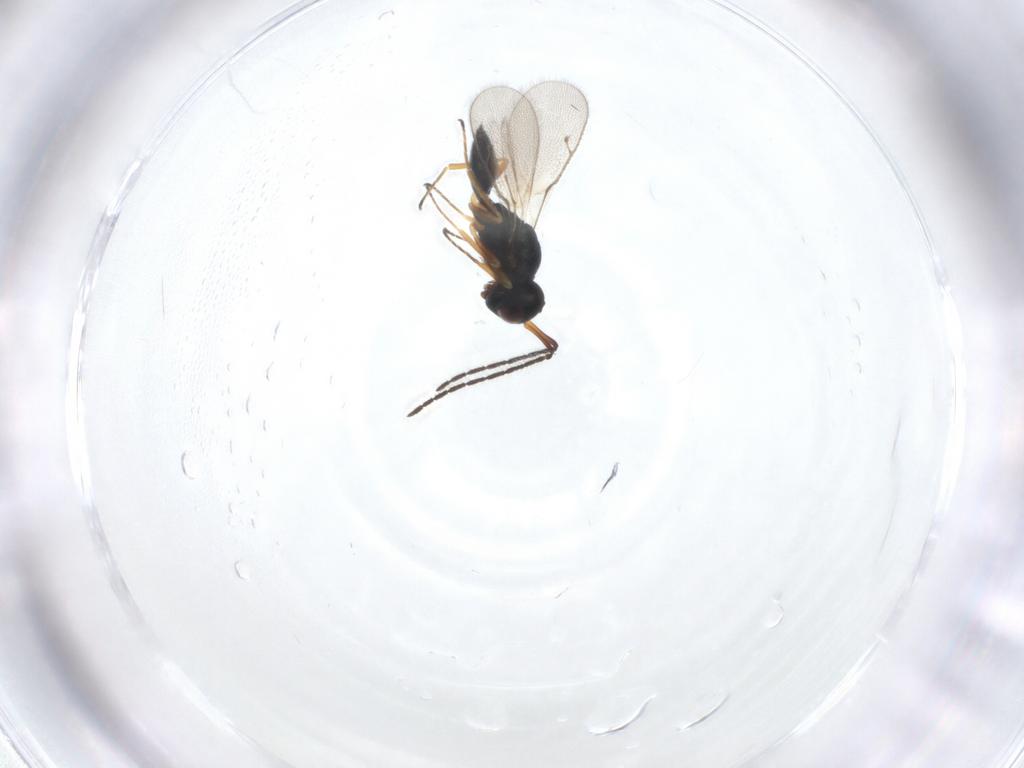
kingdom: Animalia
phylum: Arthropoda
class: Insecta
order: Hymenoptera
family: Pteromalidae
